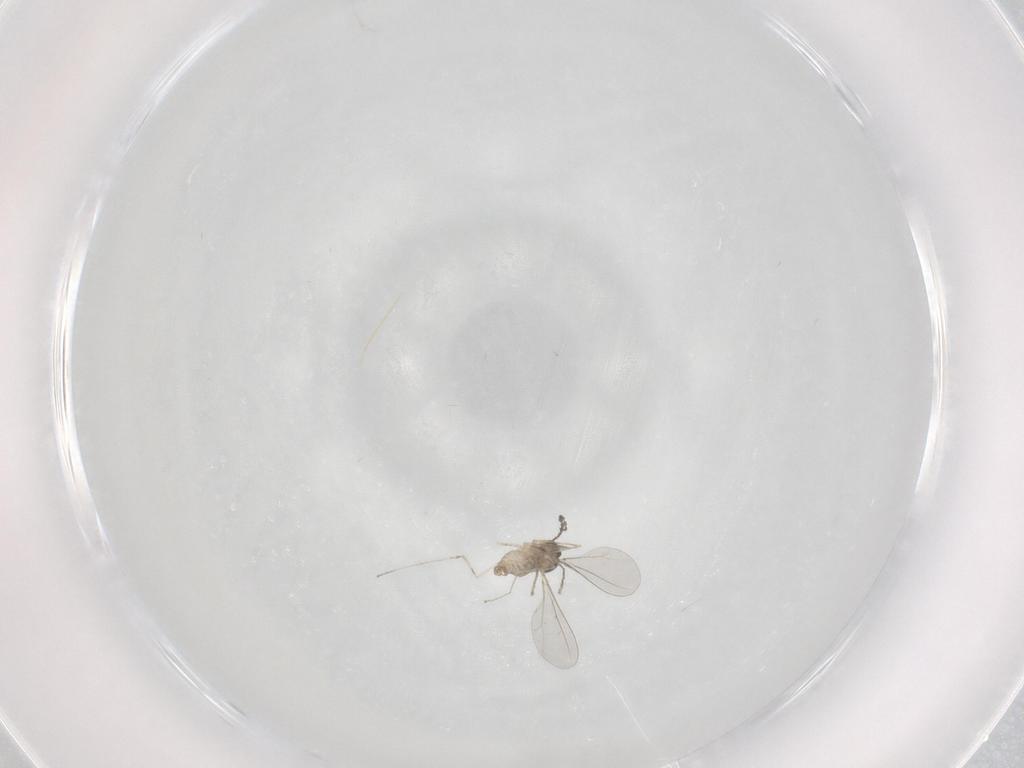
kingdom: Animalia
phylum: Arthropoda
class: Insecta
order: Diptera
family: Cecidomyiidae
